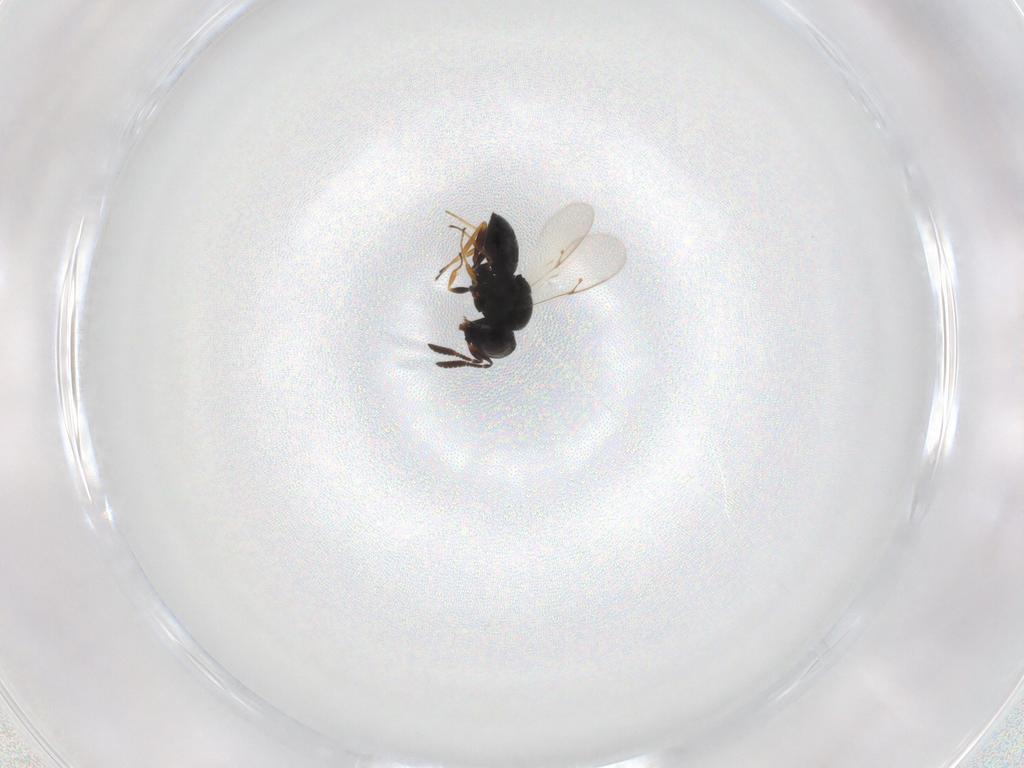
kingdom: Animalia
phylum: Arthropoda
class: Insecta
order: Hymenoptera
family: Scelionidae
